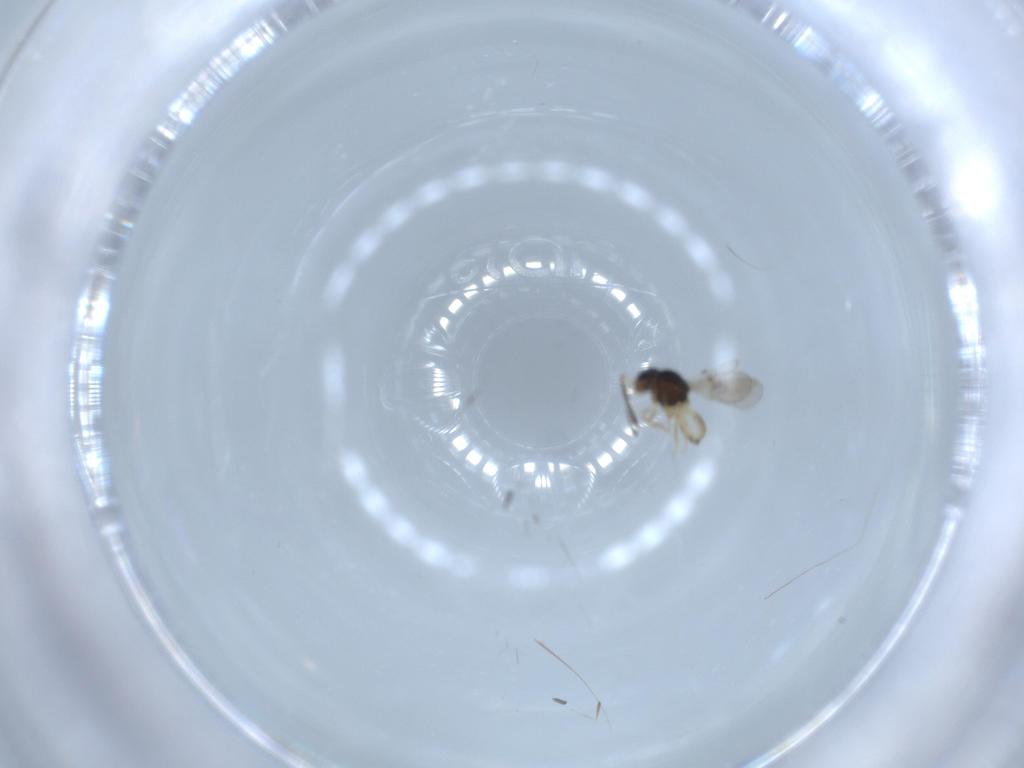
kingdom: Animalia
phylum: Arthropoda
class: Insecta
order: Hymenoptera
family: Scelionidae
